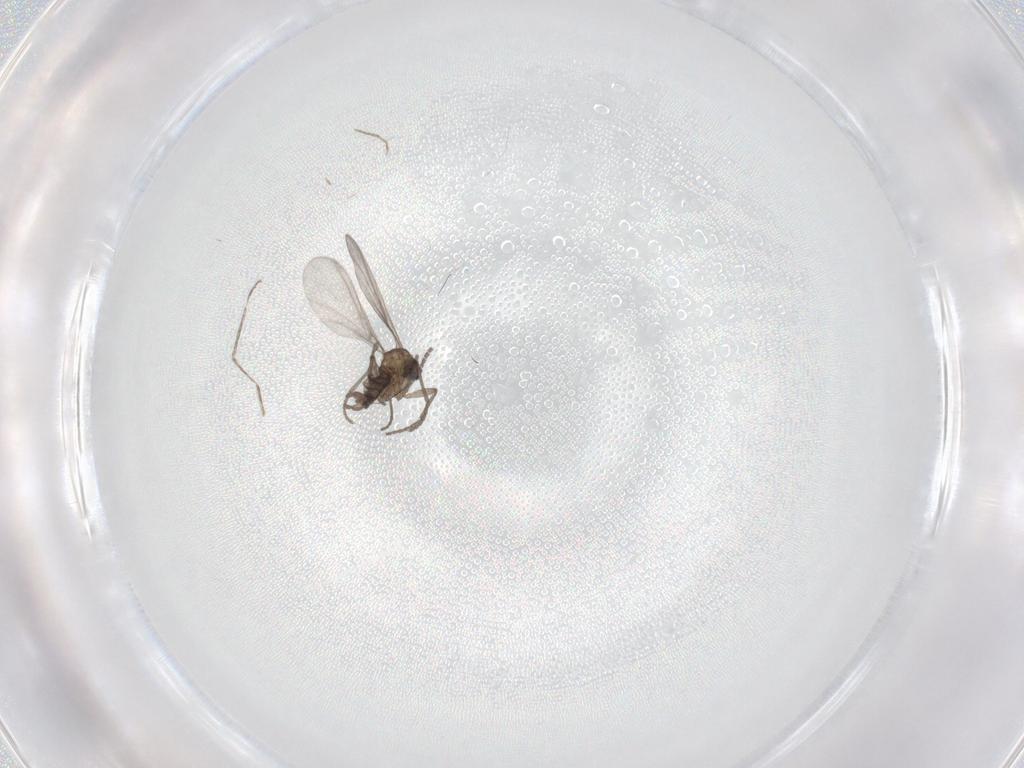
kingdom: Animalia
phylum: Arthropoda
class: Insecta
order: Diptera
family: Sciaridae
